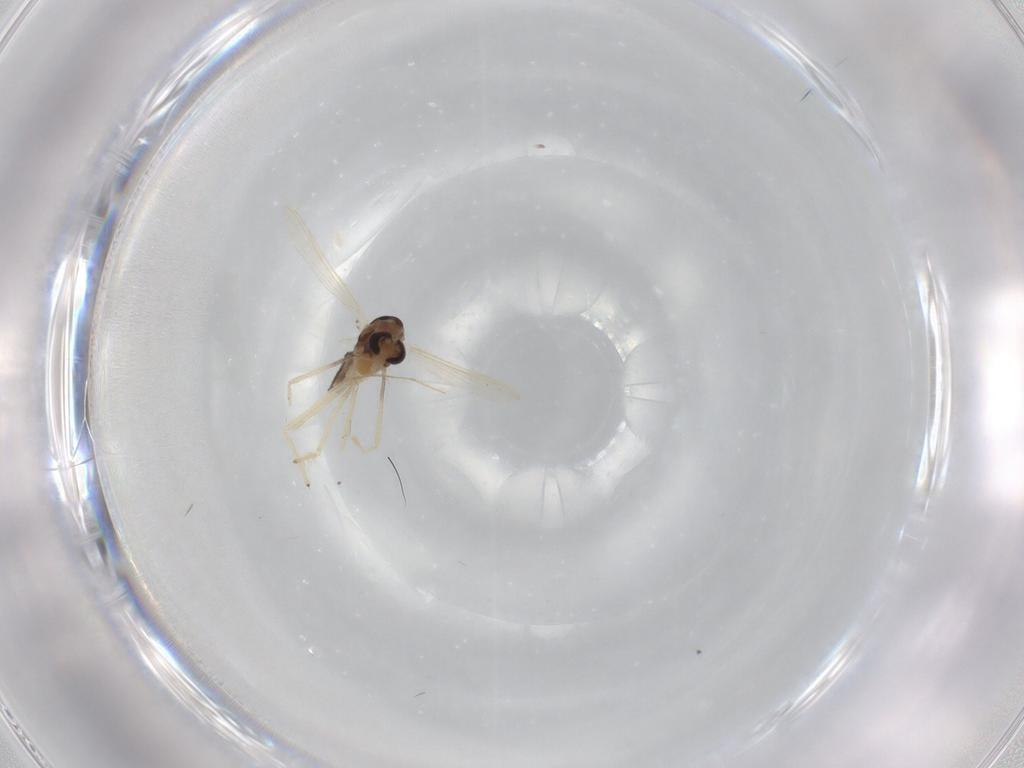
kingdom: Animalia
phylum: Arthropoda
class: Insecta
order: Diptera
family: Chironomidae
